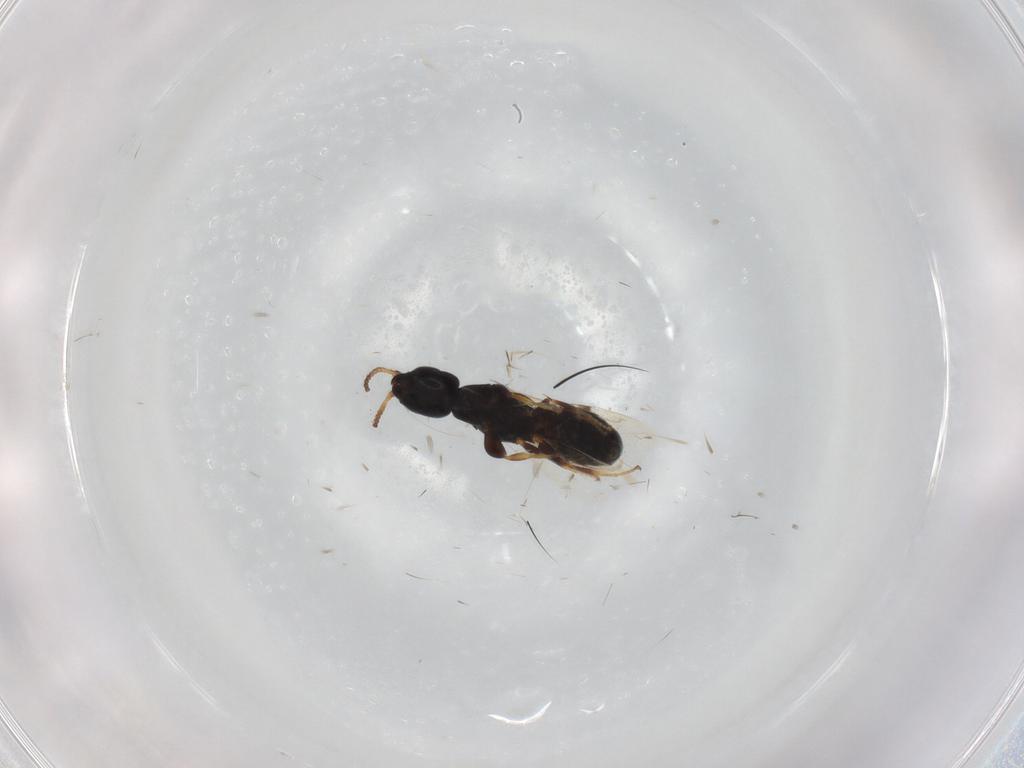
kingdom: Animalia
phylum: Arthropoda
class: Insecta
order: Hymenoptera
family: Bethylidae
